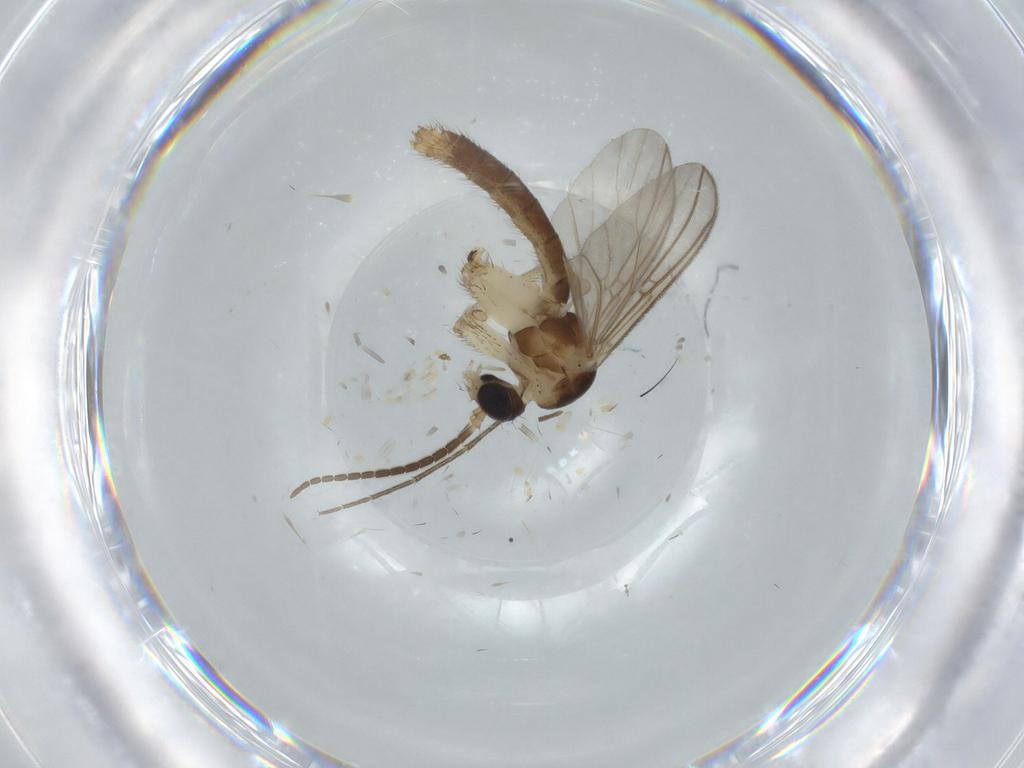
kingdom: Animalia
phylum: Arthropoda
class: Insecta
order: Diptera
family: Mycetophilidae
